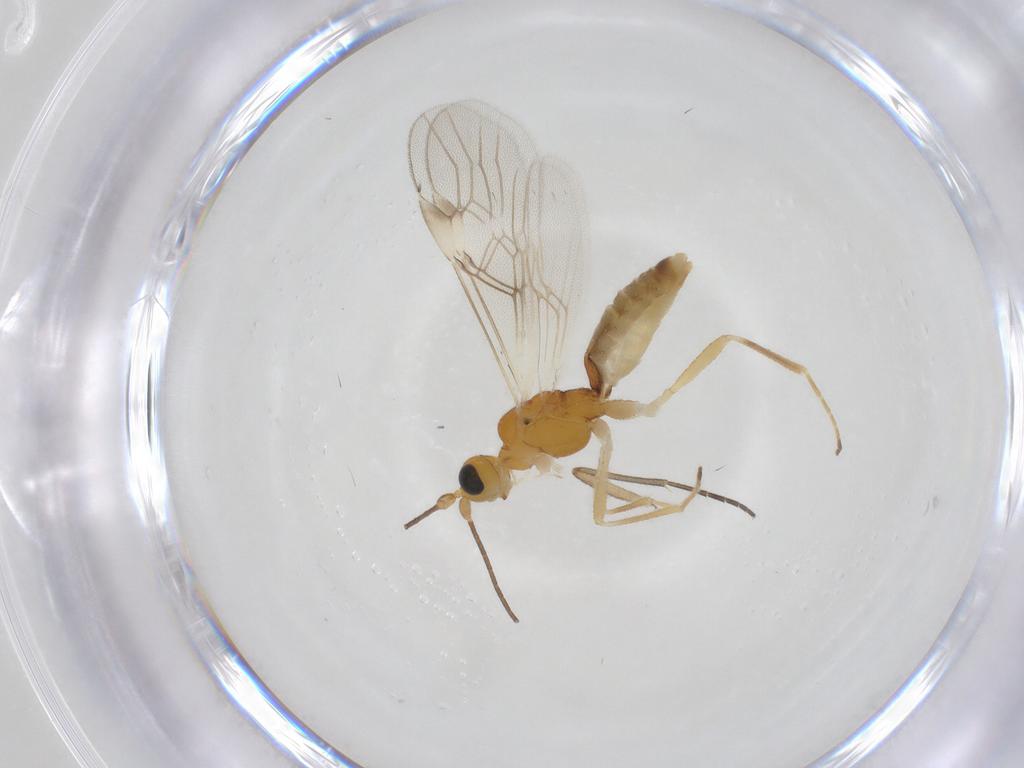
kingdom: Animalia
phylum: Arthropoda
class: Insecta
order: Hymenoptera
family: Braconidae
